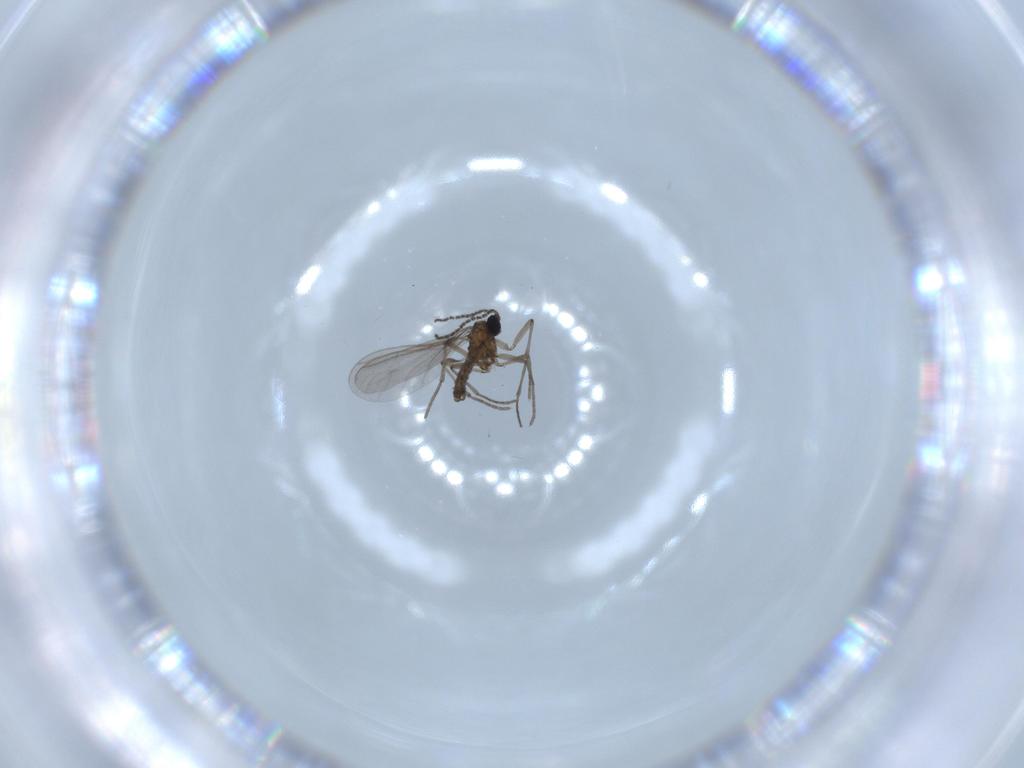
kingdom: Animalia
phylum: Arthropoda
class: Insecta
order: Diptera
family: Sciaridae
